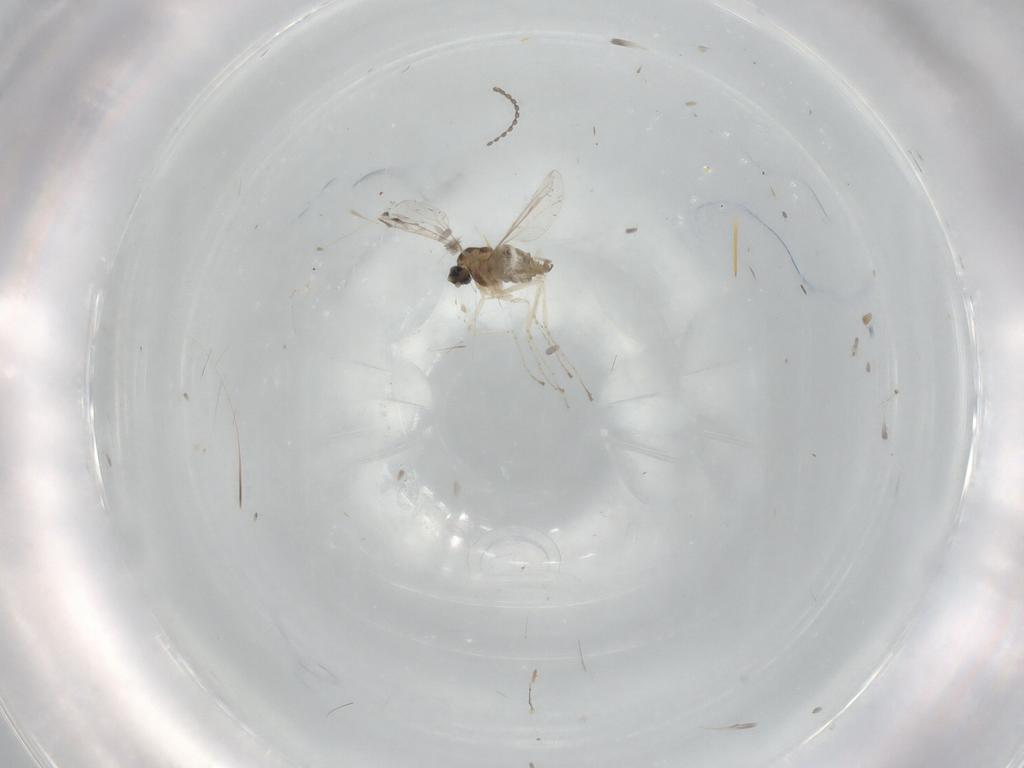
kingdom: Animalia
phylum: Arthropoda
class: Insecta
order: Diptera
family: Cecidomyiidae
